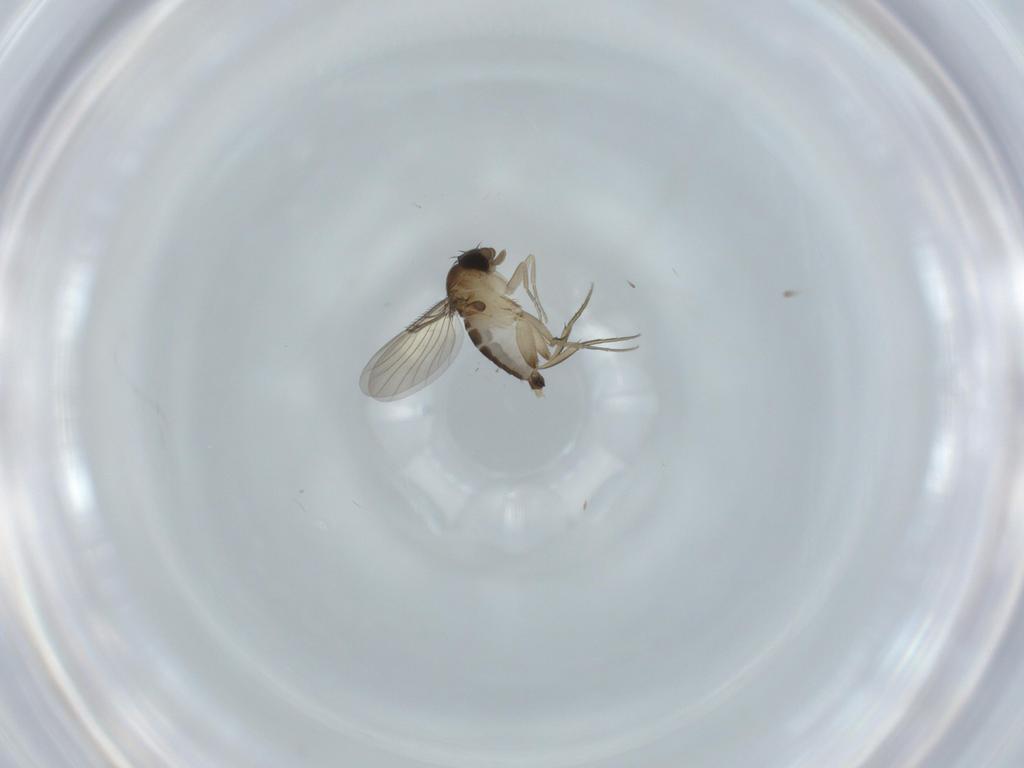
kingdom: Animalia
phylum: Arthropoda
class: Insecta
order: Diptera
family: Phoridae
